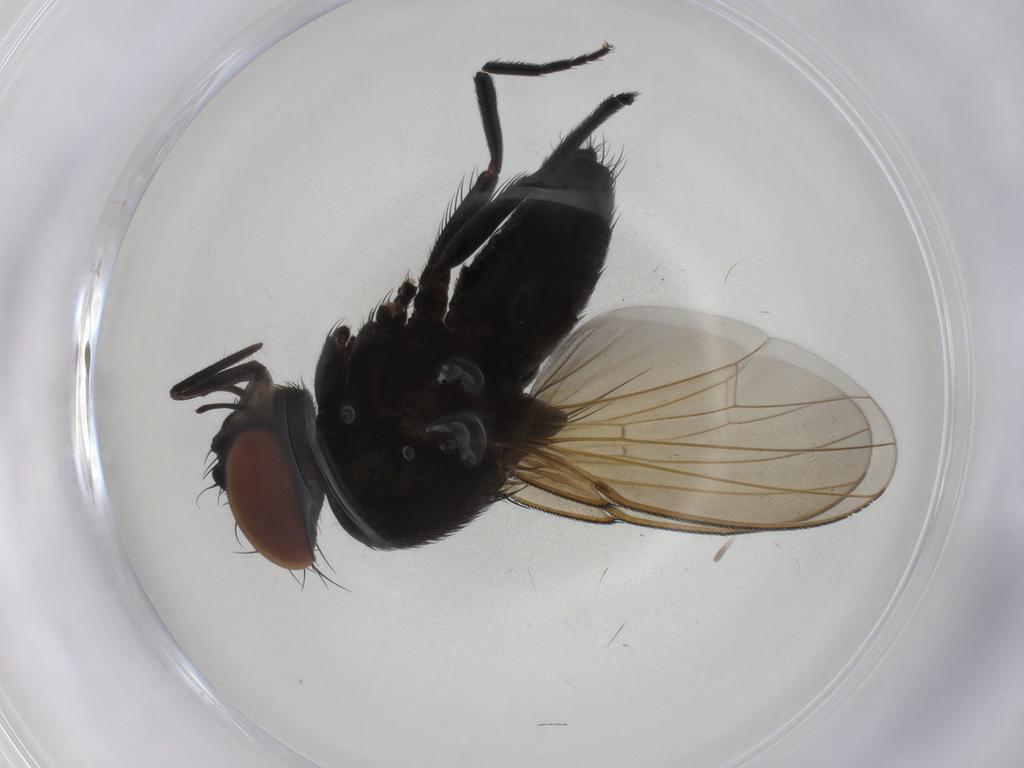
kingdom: Animalia
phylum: Arthropoda
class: Insecta
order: Diptera
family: Milichiidae
